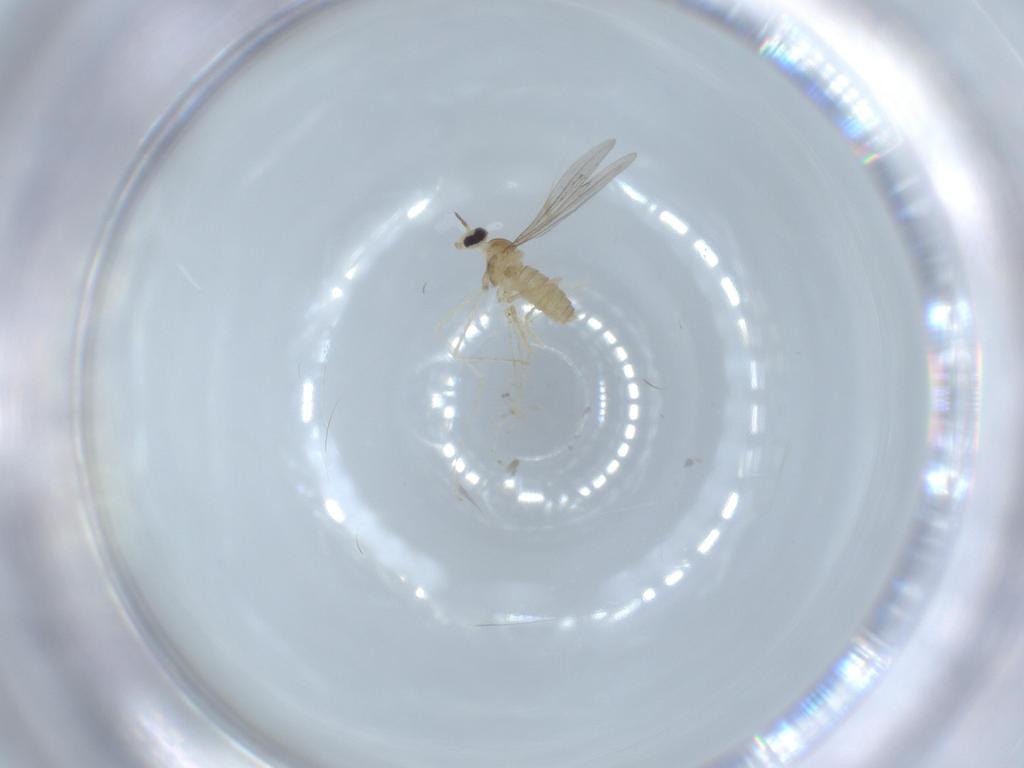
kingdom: Animalia
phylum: Arthropoda
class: Insecta
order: Diptera
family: Cecidomyiidae
